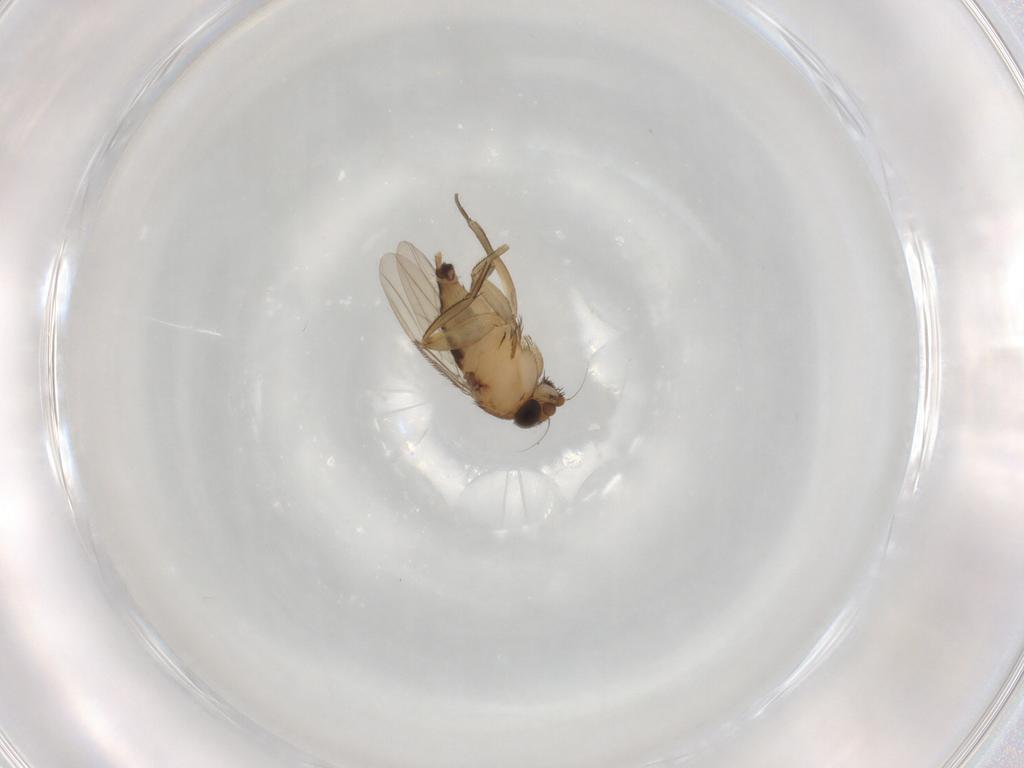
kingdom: Animalia
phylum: Arthropoda
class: Insecta
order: Diptera
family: Phoridae
